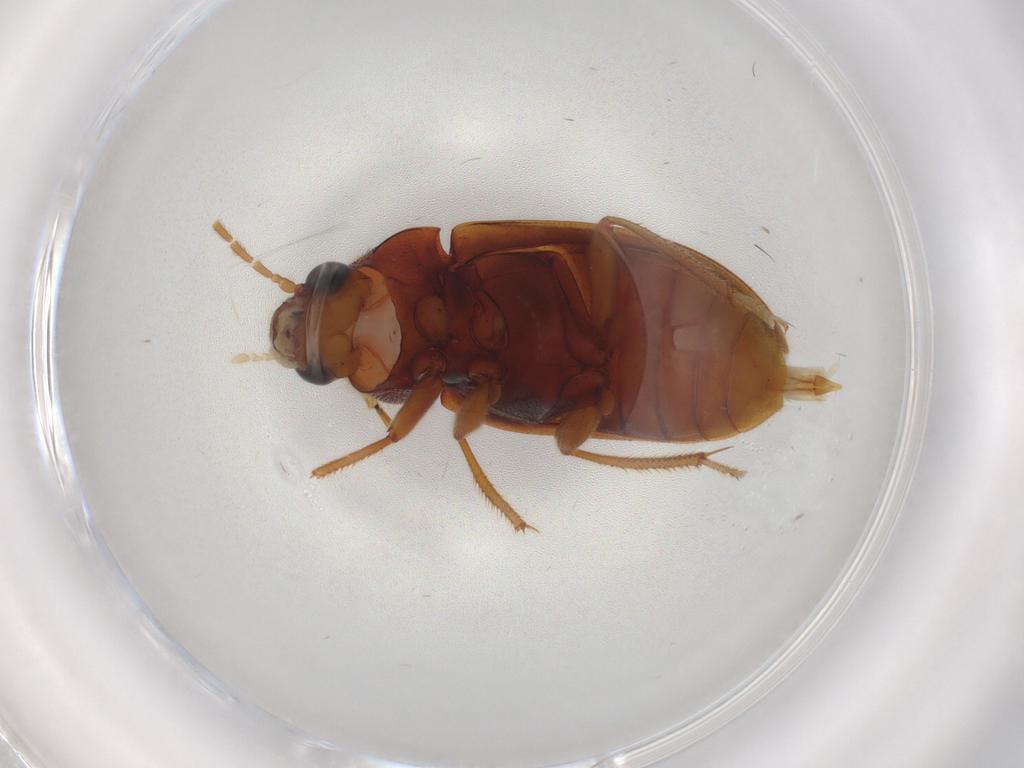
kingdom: Animalia
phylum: Arthropoda
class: Insecta
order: Coleoptera
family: Ptilodactylidae
